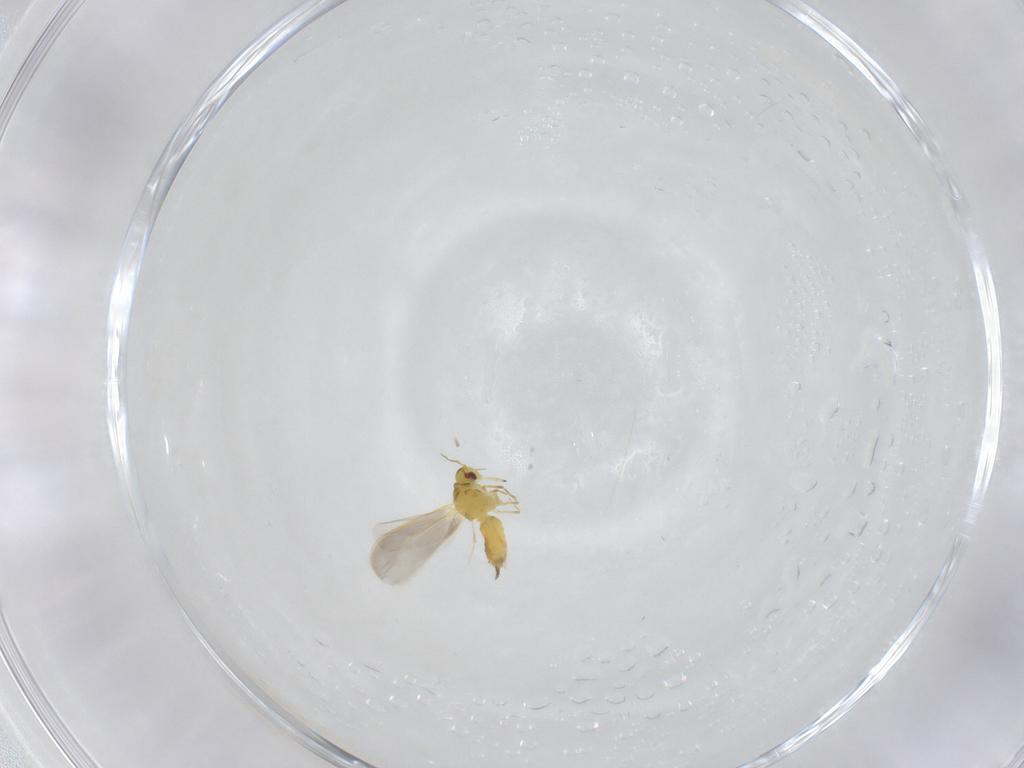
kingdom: Animalia
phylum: Arthropoda
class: Insecta
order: Hemiptera
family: Aleyrodidae
